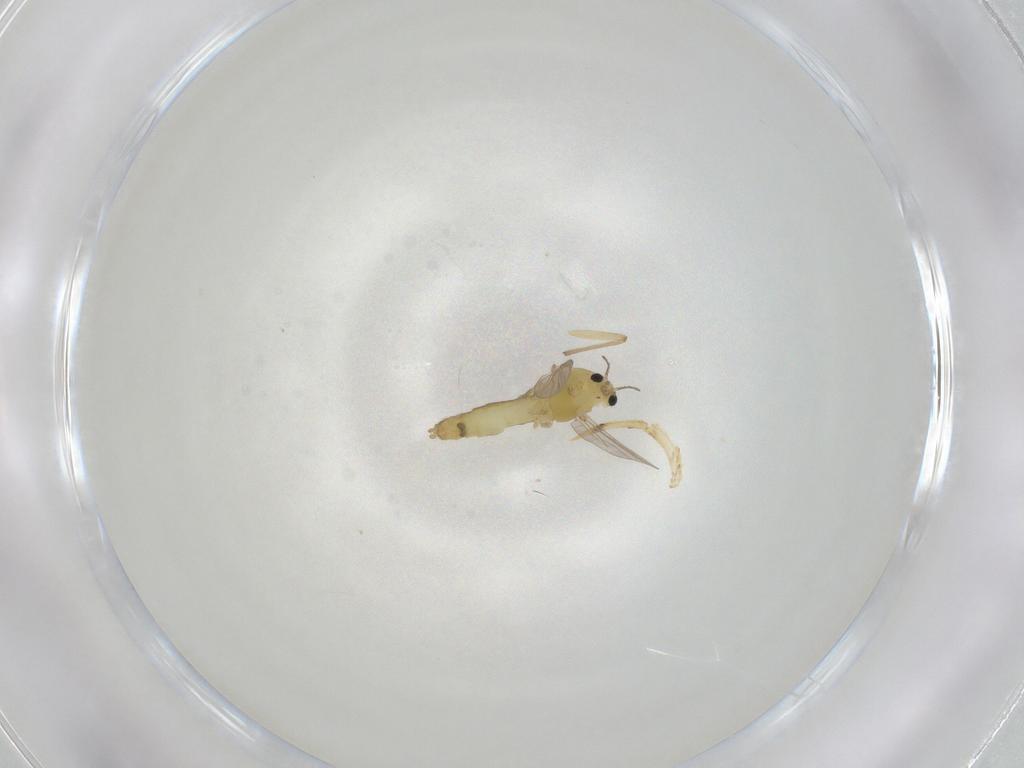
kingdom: Animalia
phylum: Arthropoda
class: Insecta
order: Diptera
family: Chironomidae
